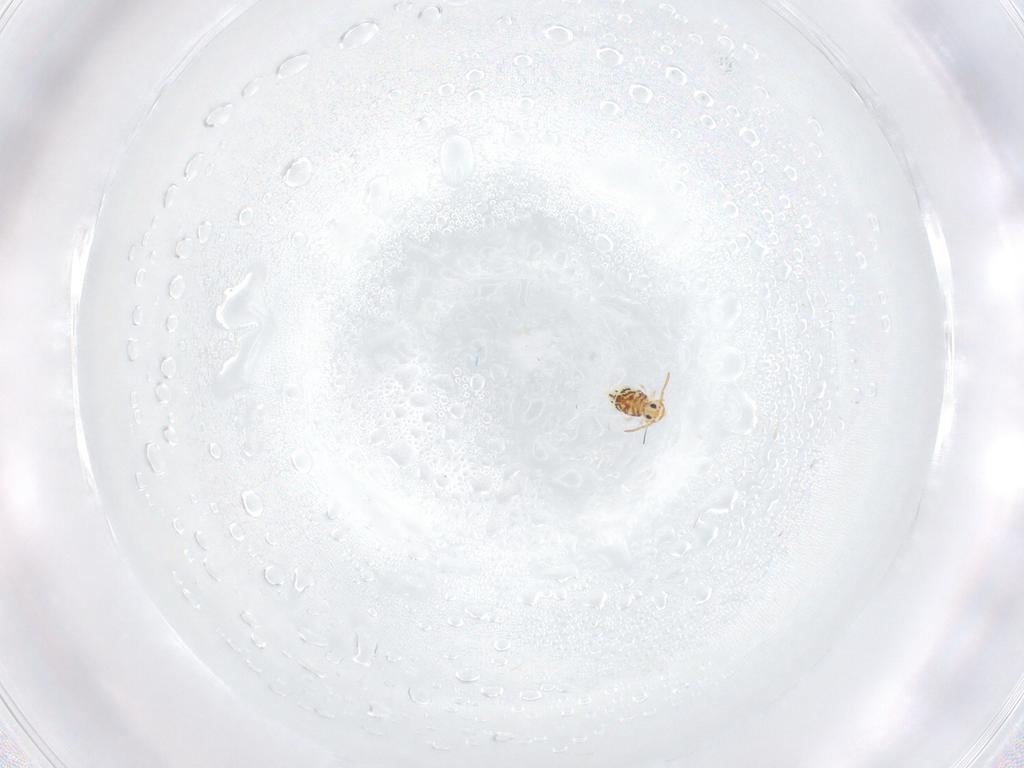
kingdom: Animalia
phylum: Arthropoda
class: Collembola
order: Symphypleona
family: Bourletiellidae
